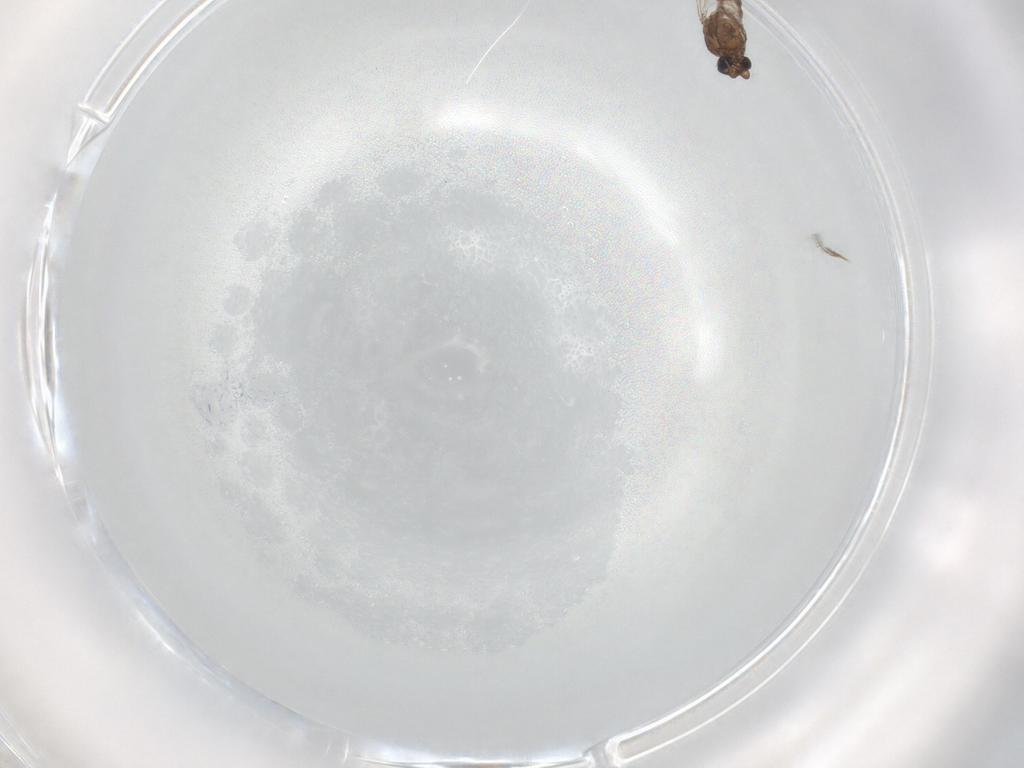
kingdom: Animalia
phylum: Arthropoda
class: Insecta
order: Diptera
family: Ceratopogonidae
